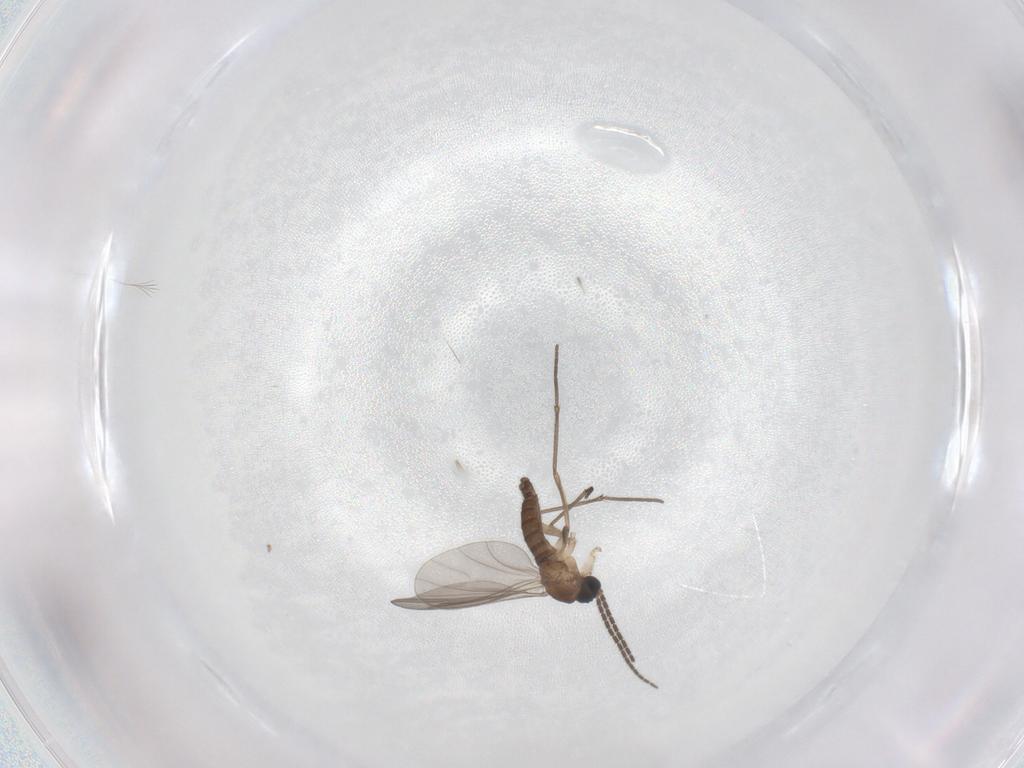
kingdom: Animalia
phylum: Arthropoda
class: Insecta
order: Diptera
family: Sciaridae
